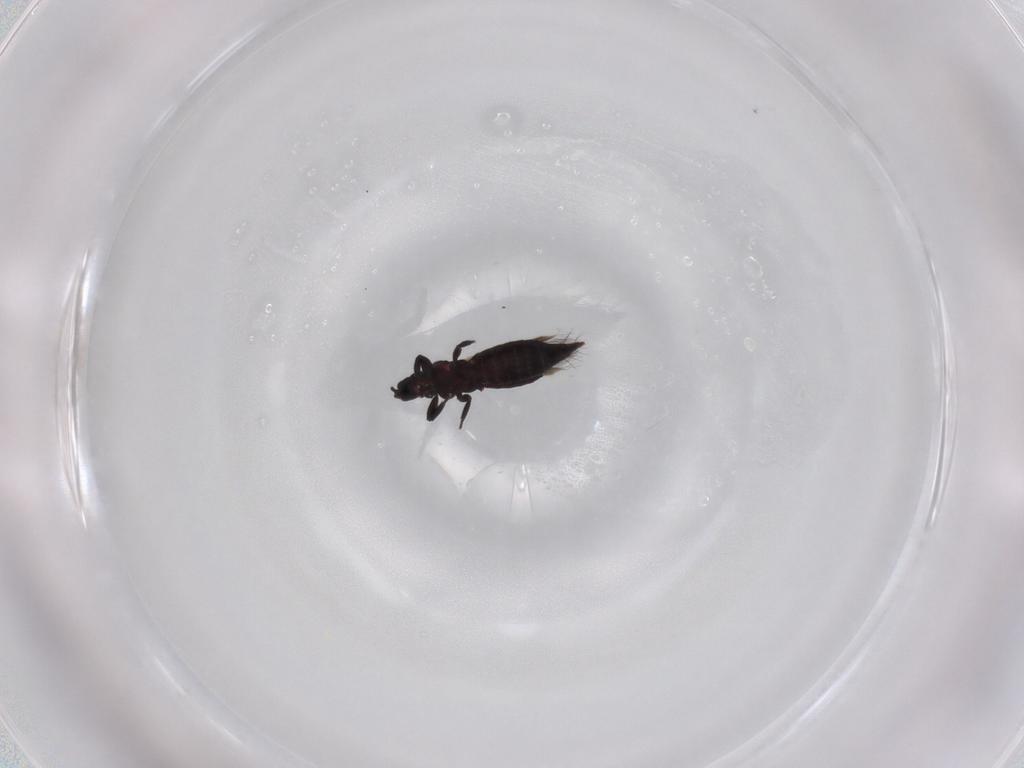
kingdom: Animalia
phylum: Arthropoda
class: Insecta
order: Thysanoptera
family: Aeolothripidae
